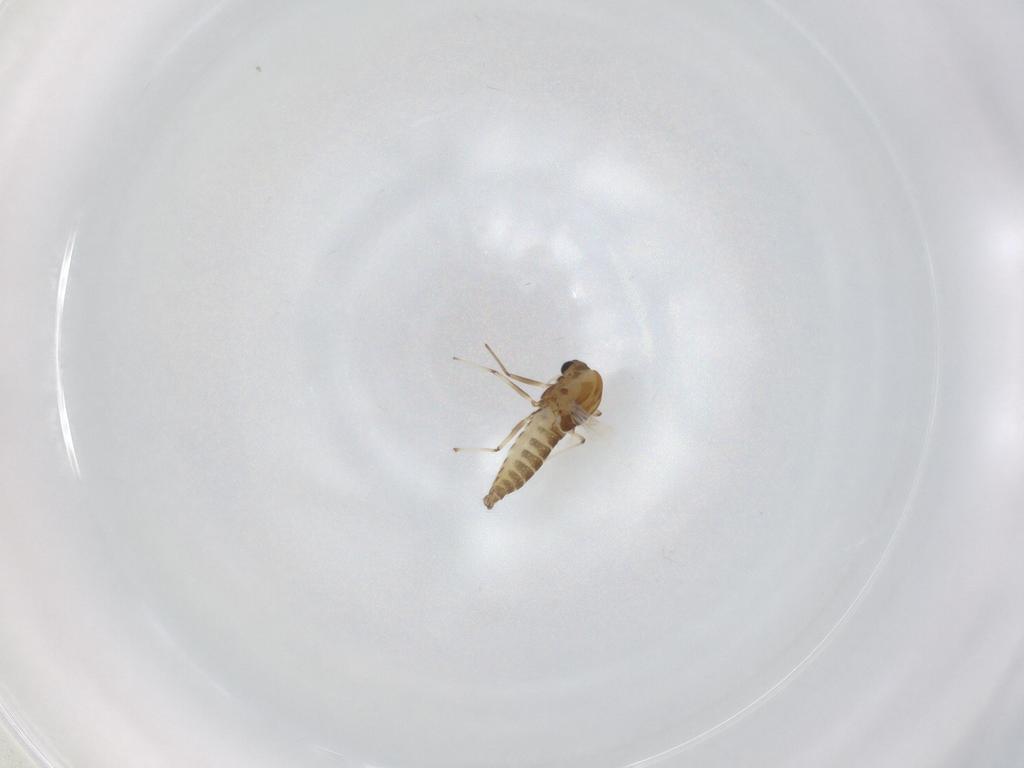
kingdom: Animalia
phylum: Arthropoda
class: Insecta
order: Diptera
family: Chironomidae
